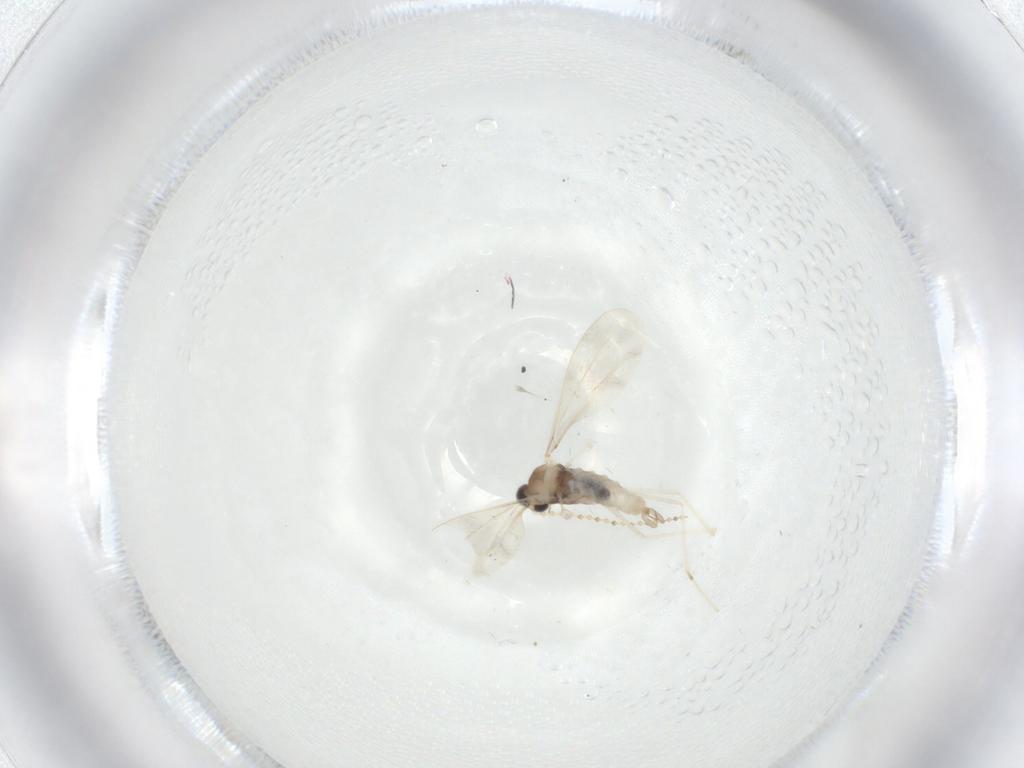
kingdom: Animalia
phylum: Arthropoda
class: Insecta
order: Diptera
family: Cecidomyiidae
